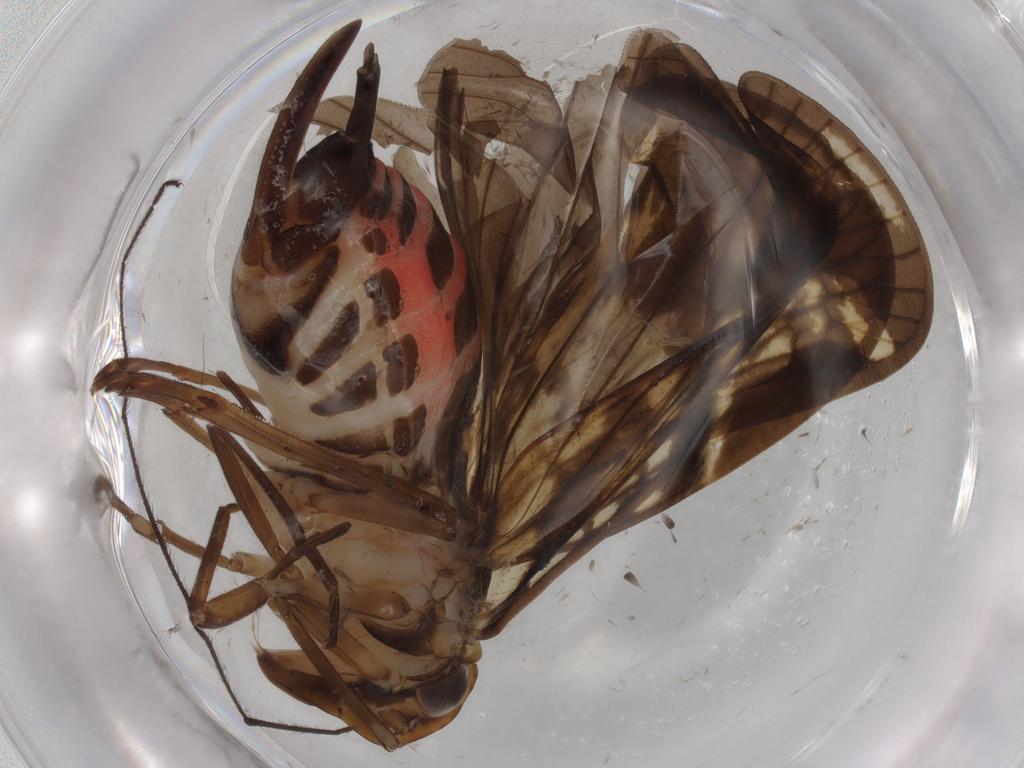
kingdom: Animalia
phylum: Arthropoda
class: Insecta
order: Hemiptera
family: Cixiidae
